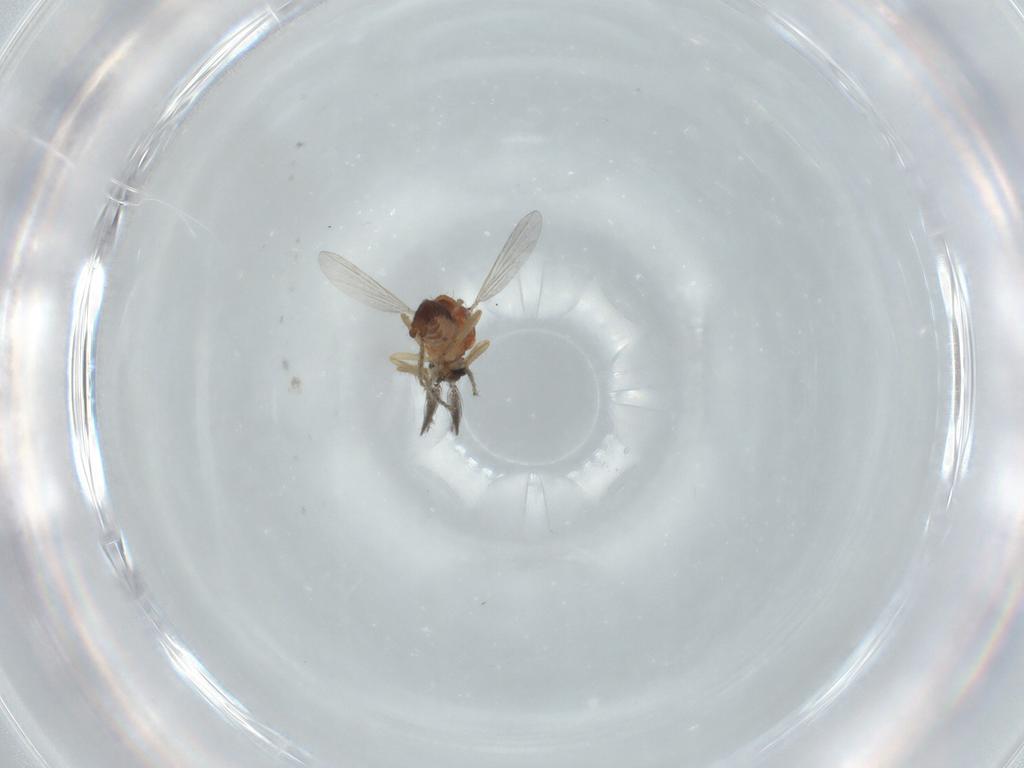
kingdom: Animalia
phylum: Arthropoda
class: Insecta
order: Diptera
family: Ceratopogonidae
